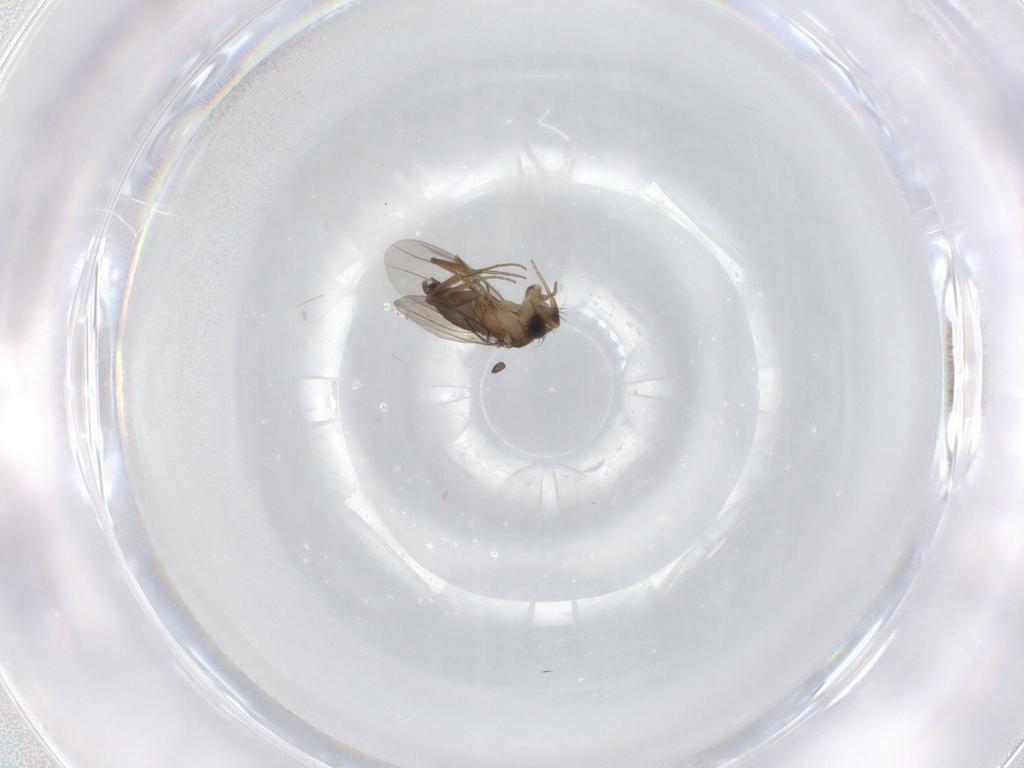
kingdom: Animalia
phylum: Arthropoda
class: Insecta
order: Diptera
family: Phoridae
